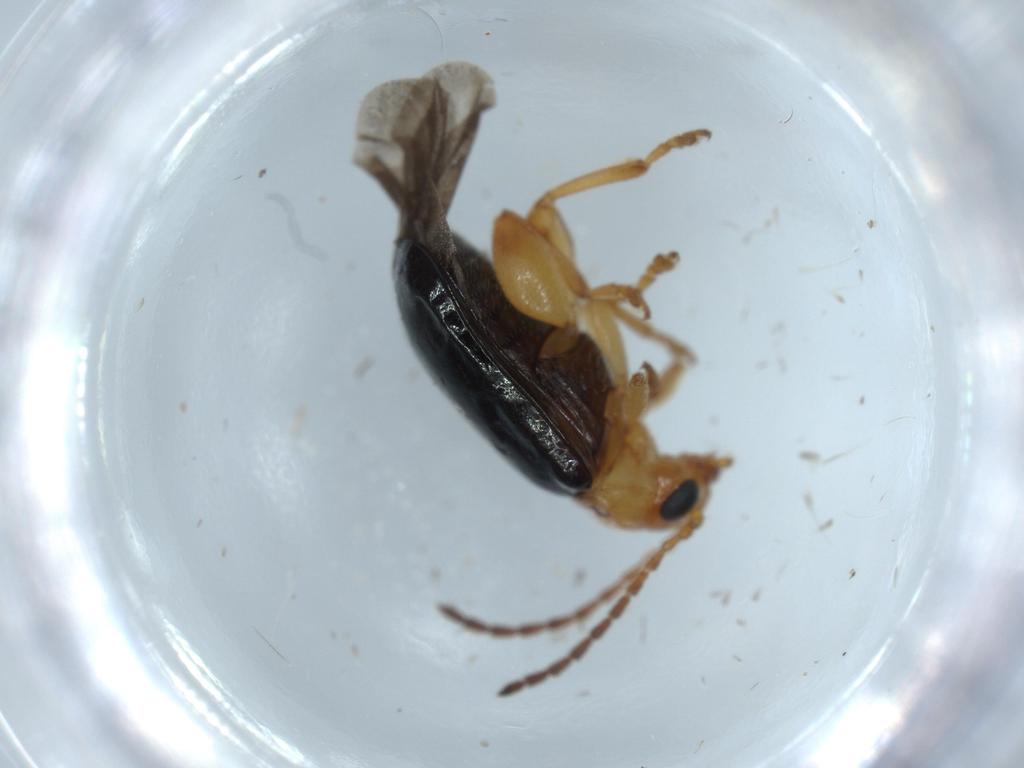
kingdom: Animalia
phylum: Arthropoda
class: Insecta
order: Coleoptera
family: Chrysomelidae
